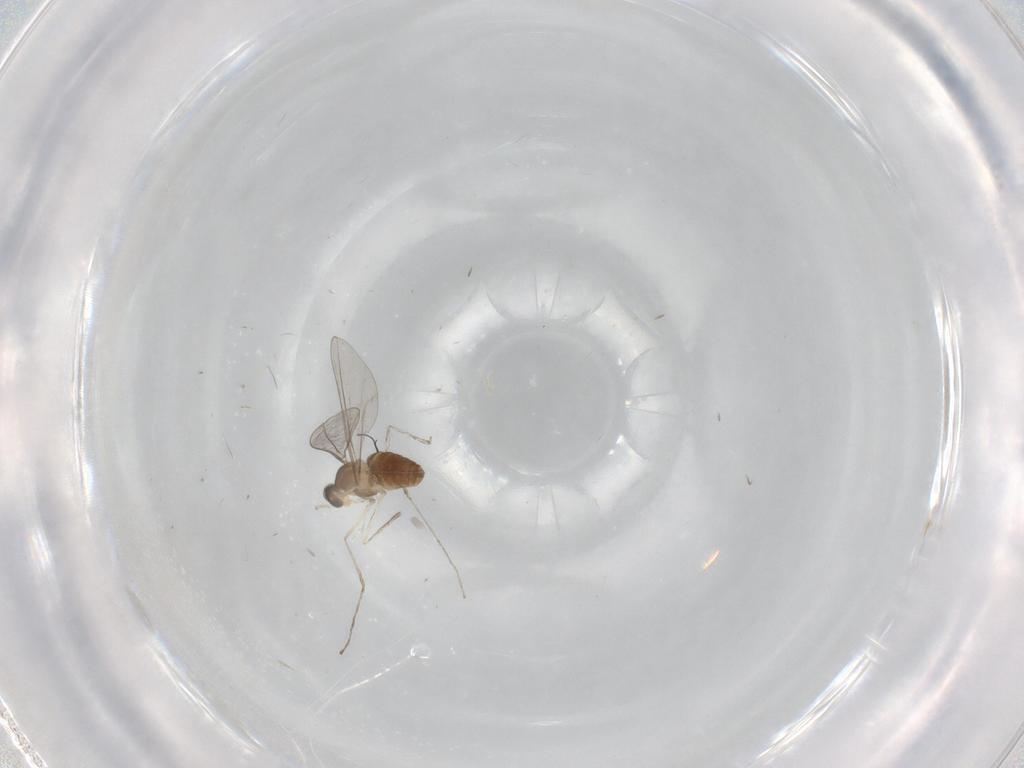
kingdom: Animalia
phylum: Arthropoda
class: Insecta
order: Diptera
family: Cecidomyiidae
